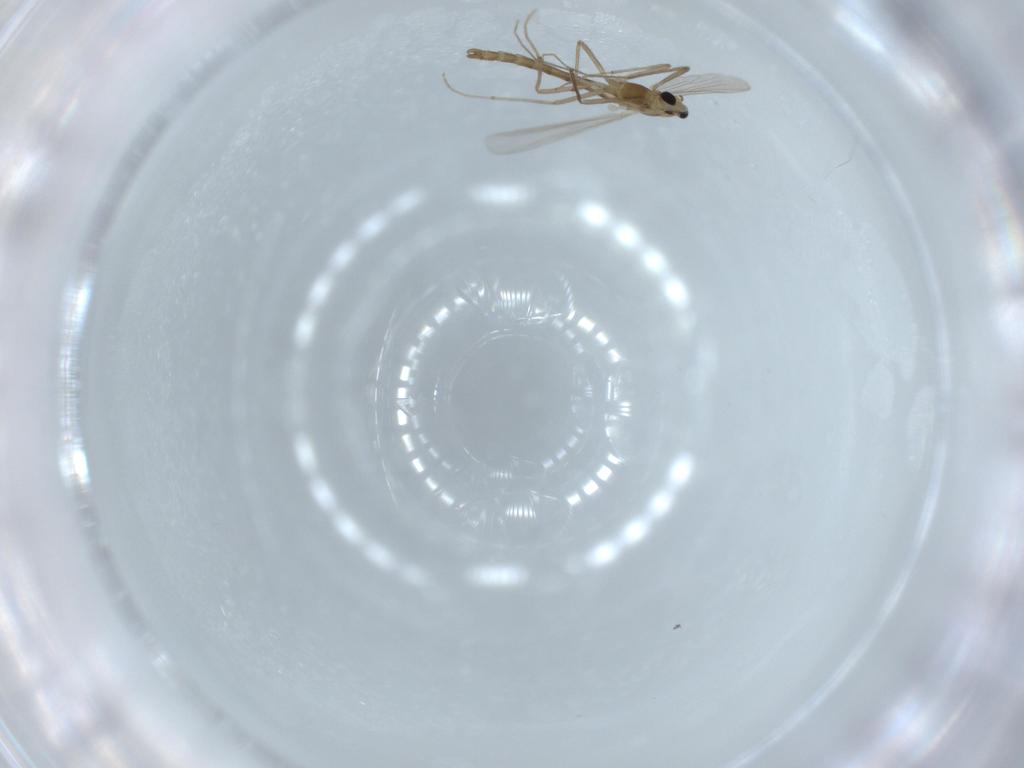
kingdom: Animalia
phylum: Arthropoda
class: Insecta
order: Diptera
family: Chironomidae
